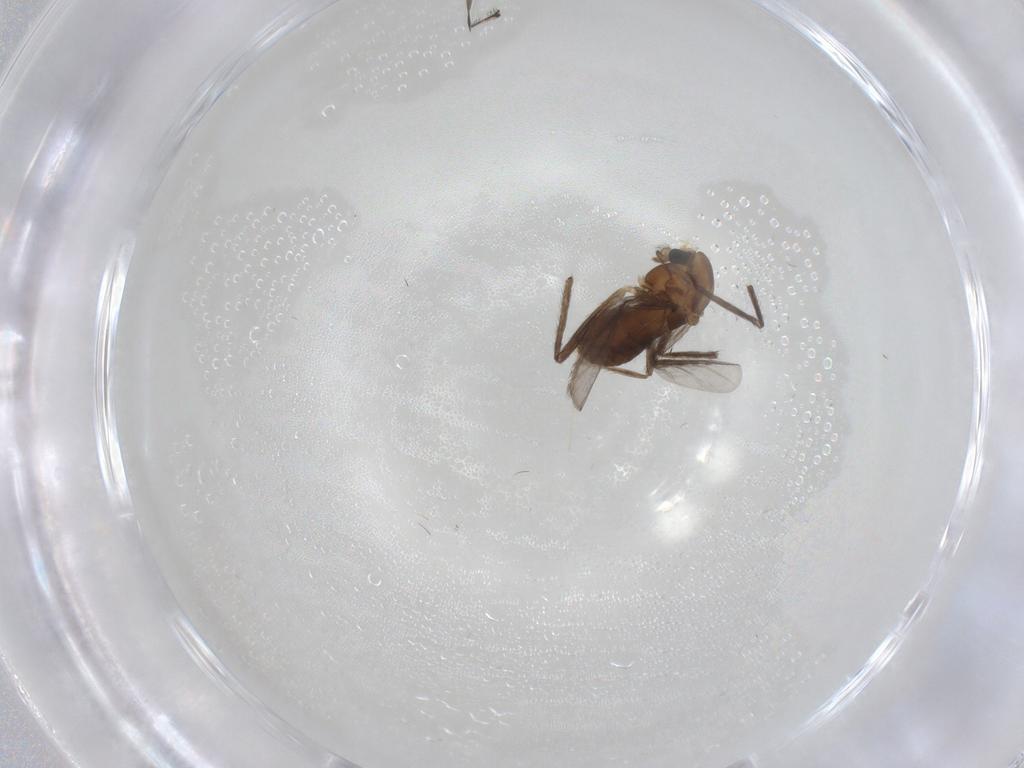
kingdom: Animalia
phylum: Arthropoda
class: Insecta
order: Diptera
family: Chironomidae
